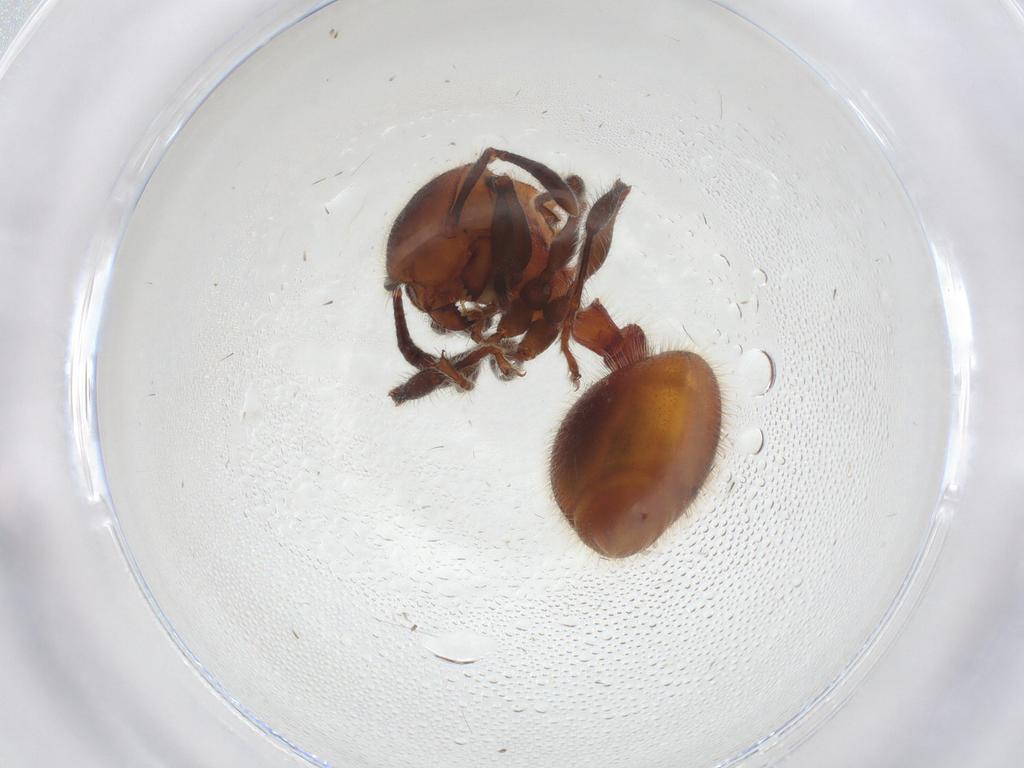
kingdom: Animalia
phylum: Arthropoda
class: Insecta
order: Hymenoptera
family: Formicidae
